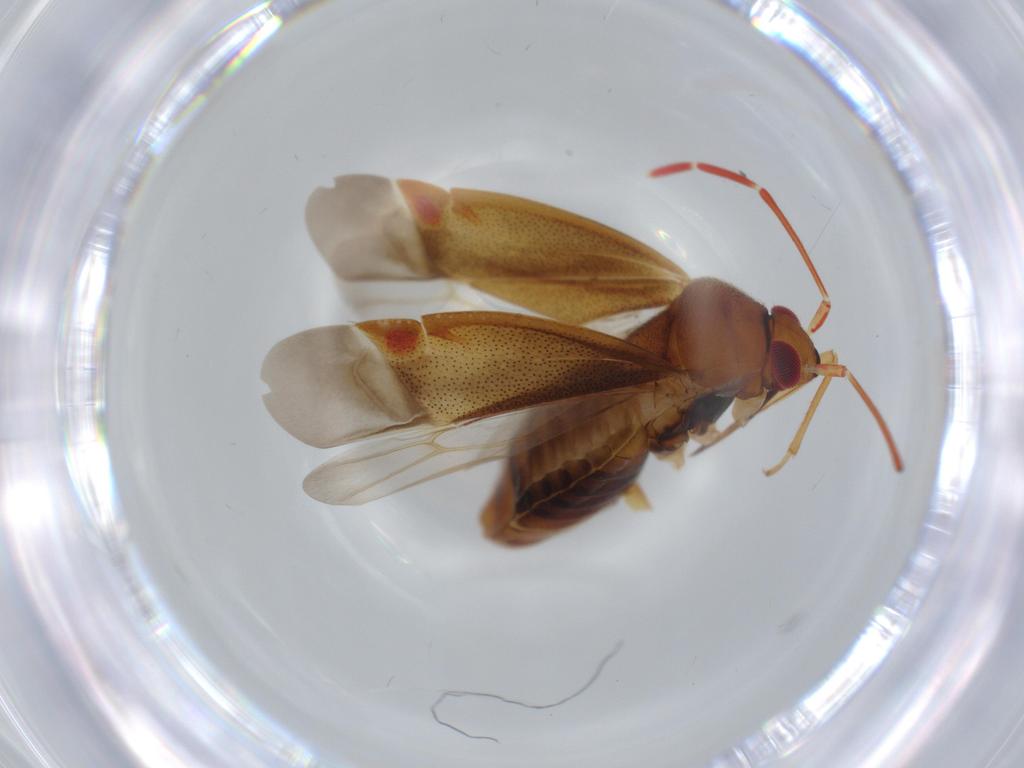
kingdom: Animalia
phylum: Arthropoda
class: Insecta
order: Hemiptera
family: Miridae
